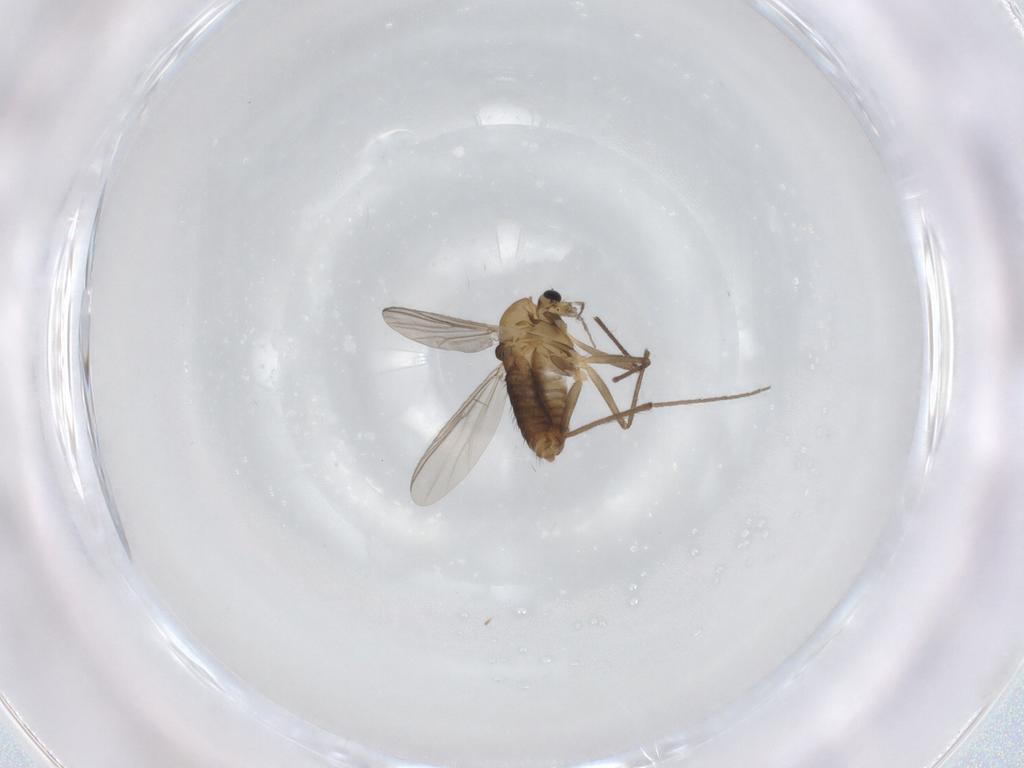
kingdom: Animalia
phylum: Arthropoda
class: Insecta
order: Diptera
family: Chironomidae
